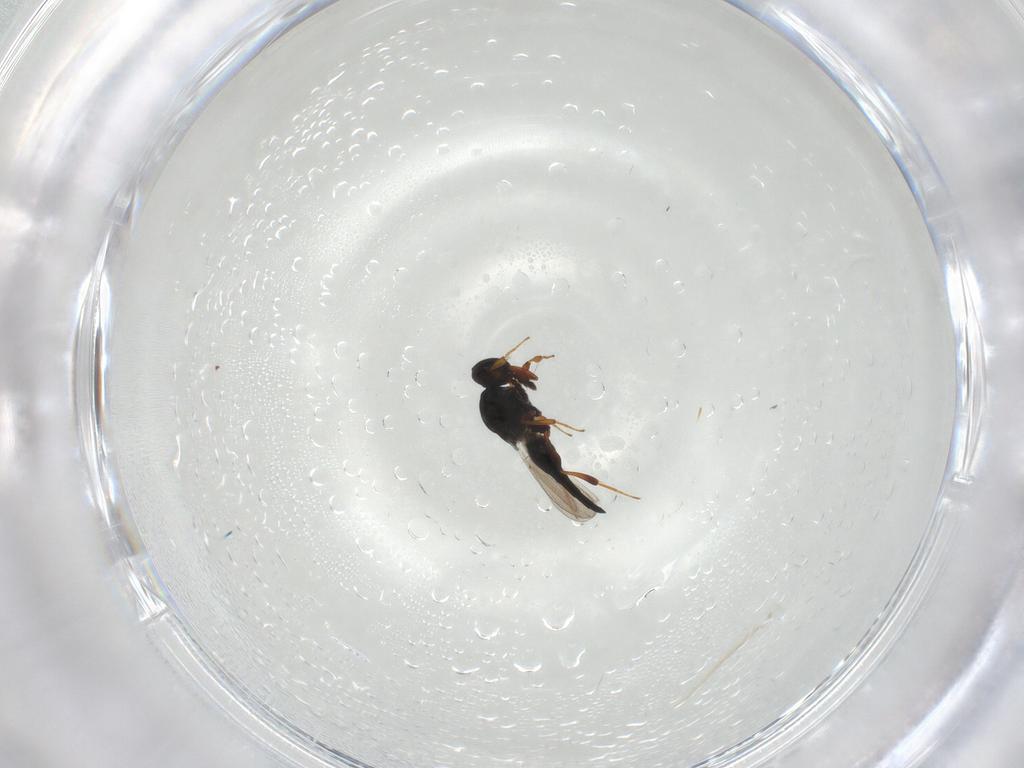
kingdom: Animalia
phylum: Arthropoda
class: Insecta
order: Hymenoptera
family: Platygastridae
